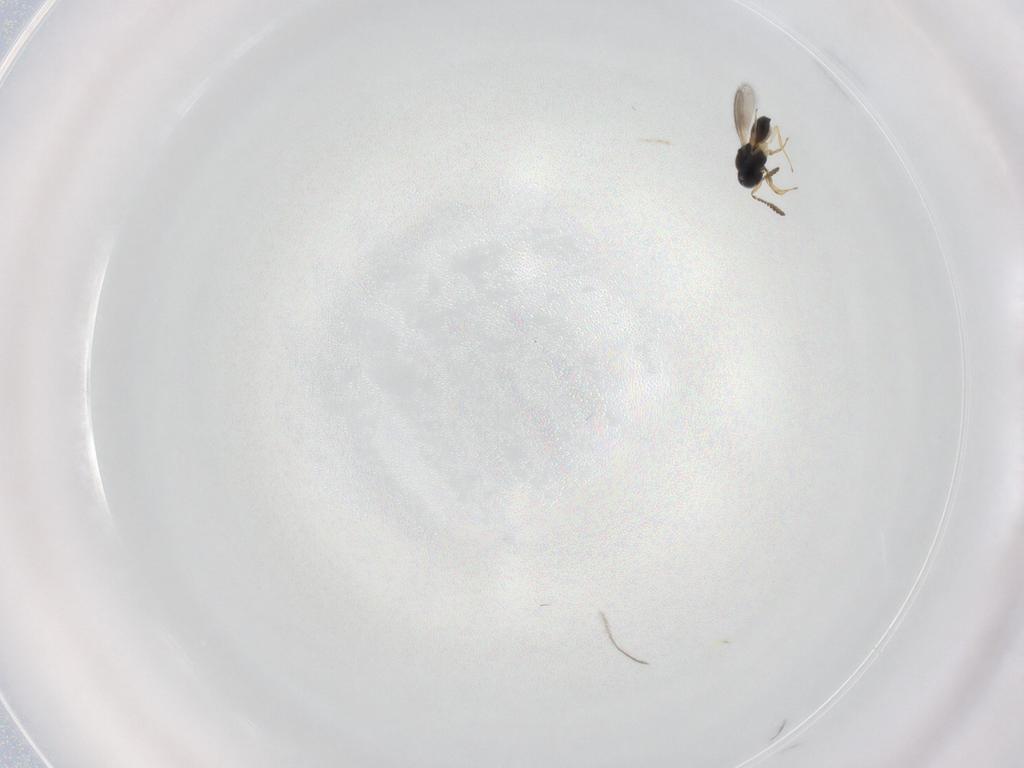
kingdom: Animalia
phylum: Arthropoda
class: Insecta
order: Hymenoptera
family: Scelionidae
